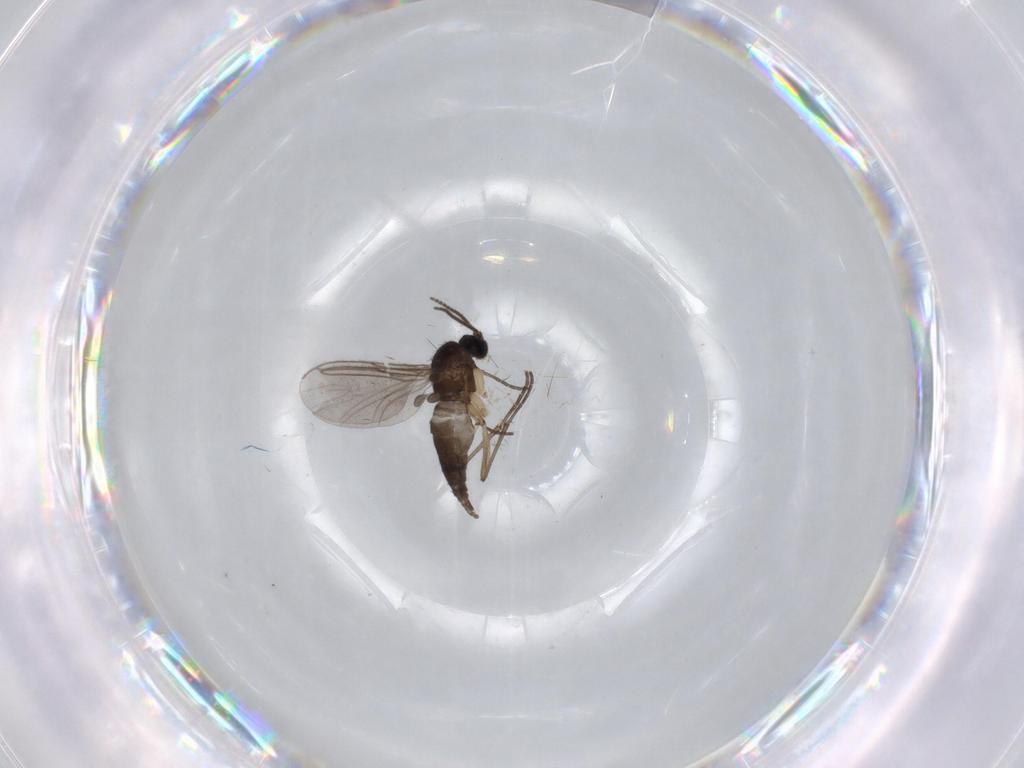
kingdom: Animalia
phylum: Arthropoda
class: Insecta
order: Diptera
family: Sciaridae
